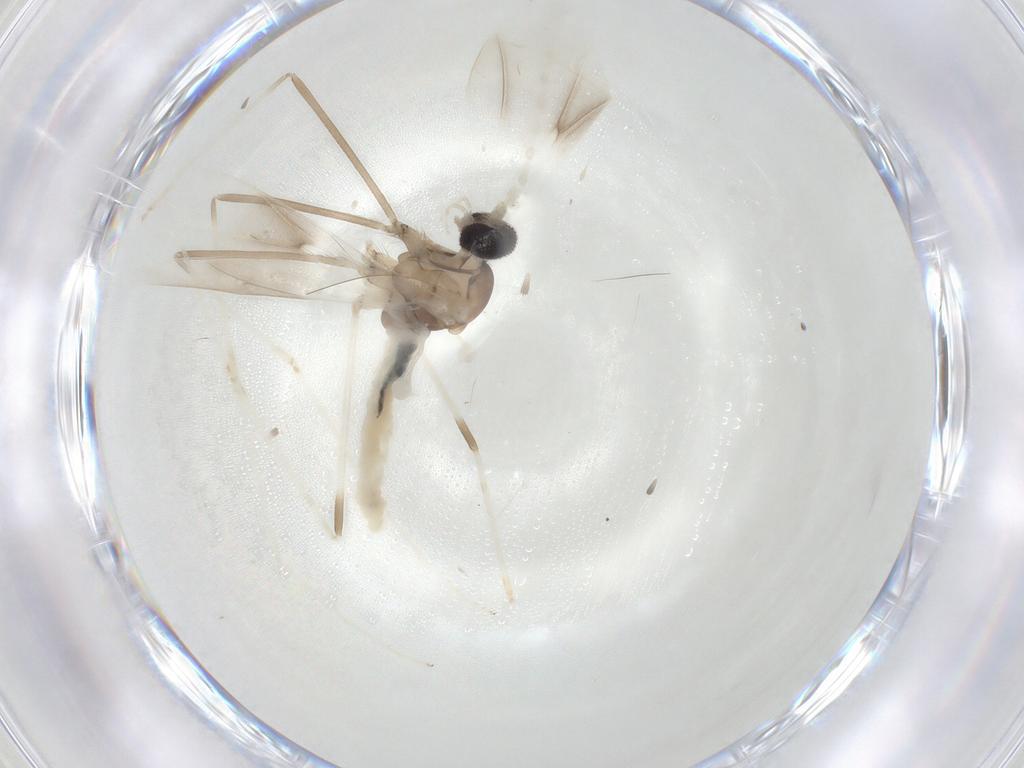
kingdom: Animalia
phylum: Arthropoda
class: Insecta
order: Diptera
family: Cecidomyiidae
